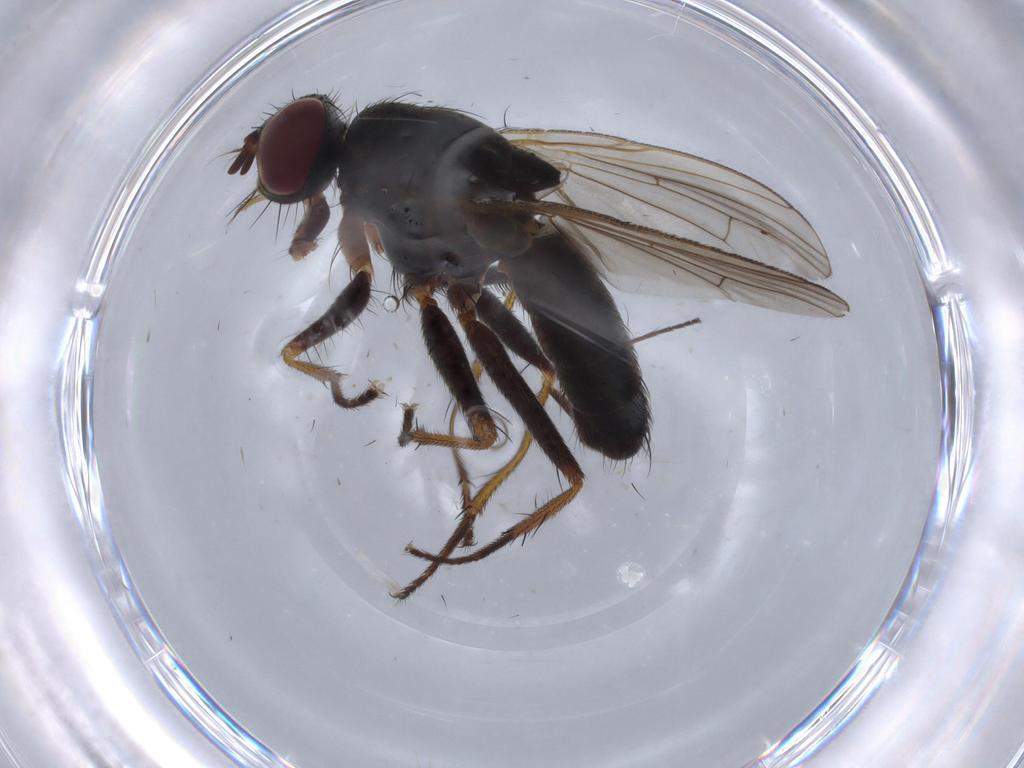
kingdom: Animalia
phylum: Arthropoda
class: Insecta
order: Diptera
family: Dolichopodidae
